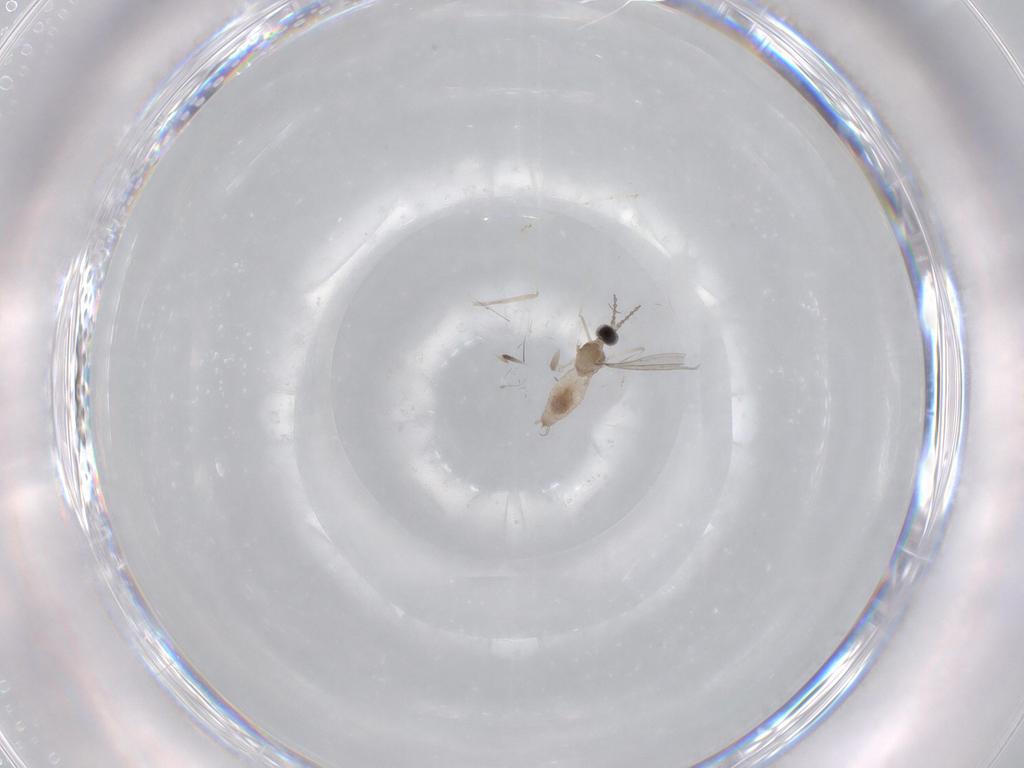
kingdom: Animalia
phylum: Arthropoda
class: Insecta
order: Diptera
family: Cecidomyiidae
